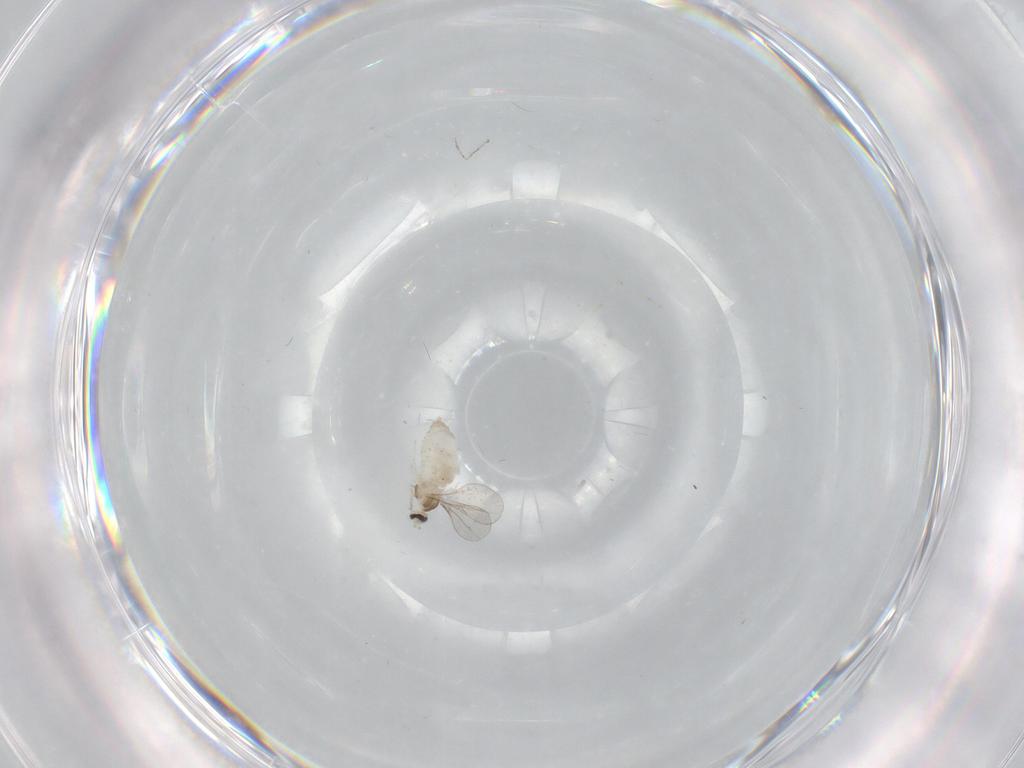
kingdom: Animalia
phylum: Arthropoda
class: Insecta
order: Diptera
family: Cecidomyiidae
